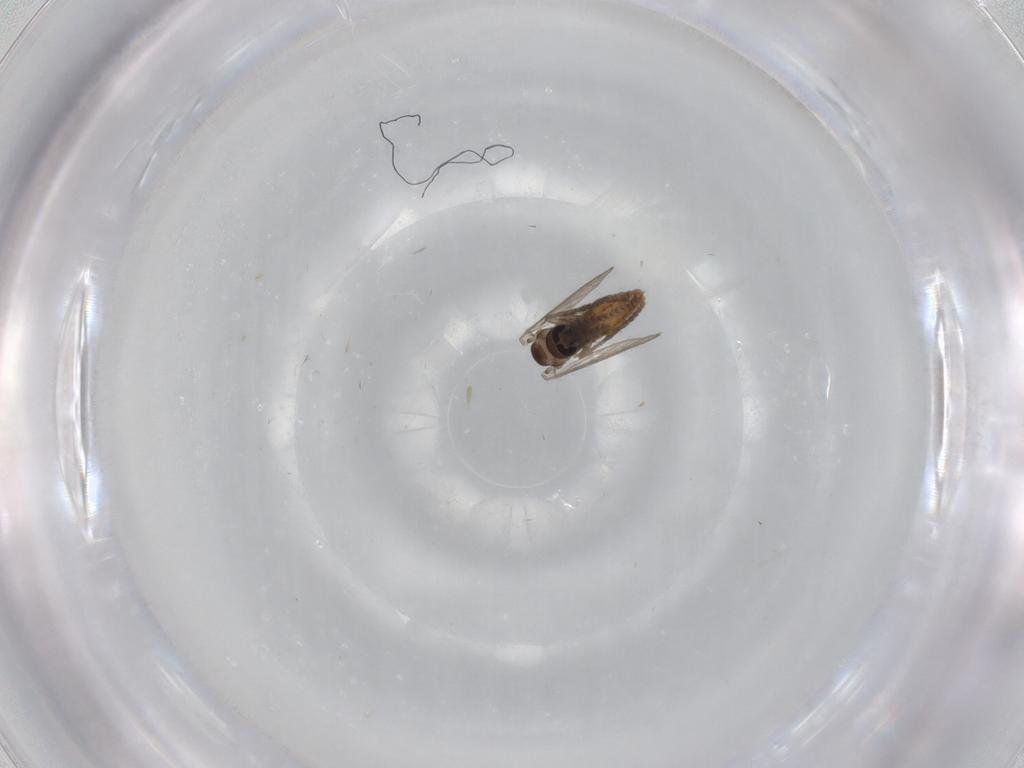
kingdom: Animalia
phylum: Arthropoda
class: Insecta
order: Diptera
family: Psychodidae
